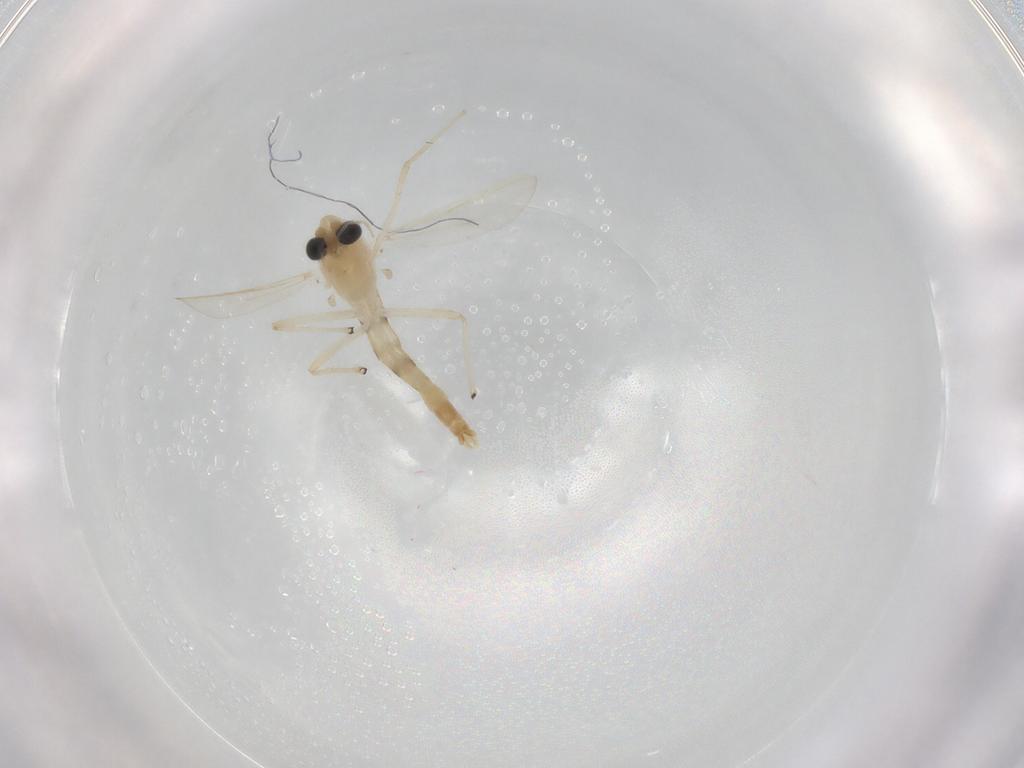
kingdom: Animalia
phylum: Arthropoda
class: Insecta
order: Diptera
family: Chironomidae
